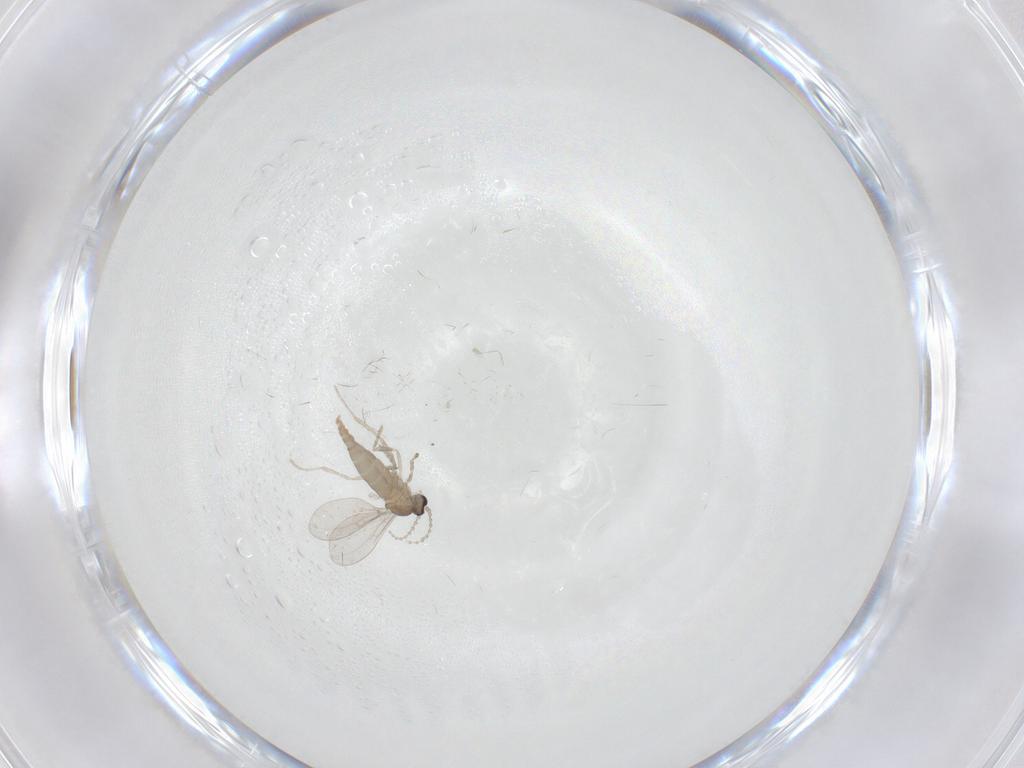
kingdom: Animalia
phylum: Arthropoda
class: Insecta
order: Diptera
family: Cecidomyiidae
